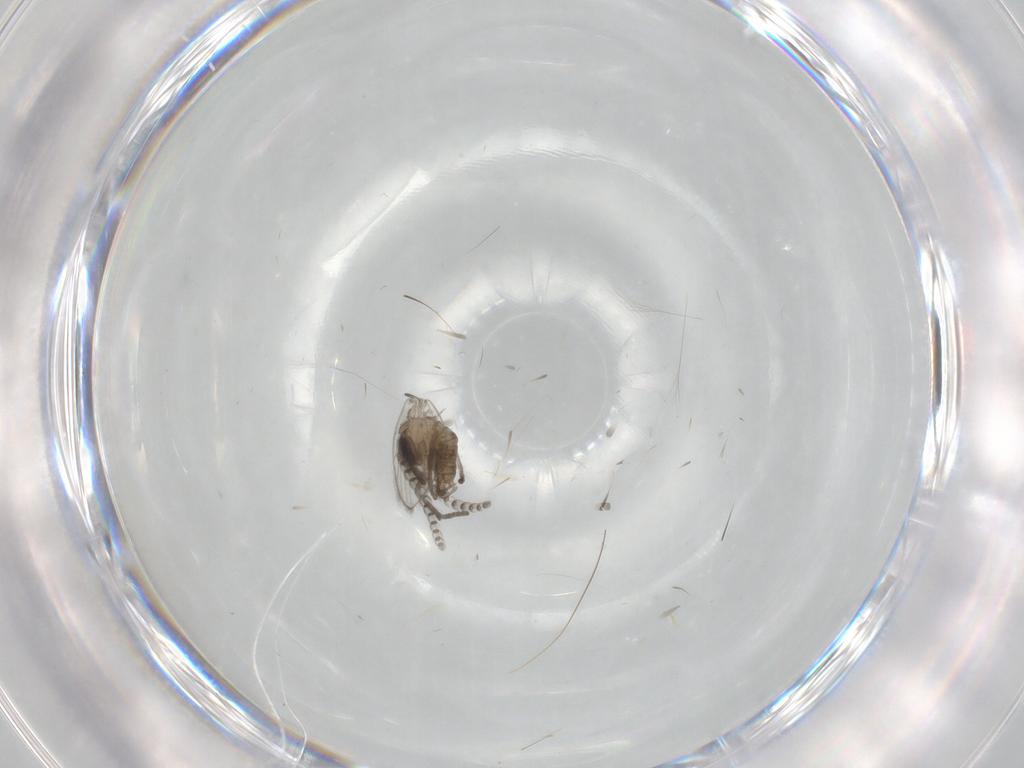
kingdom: Animalia
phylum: Arthropoda
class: Insecta
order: Diptera
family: Psychodidae
